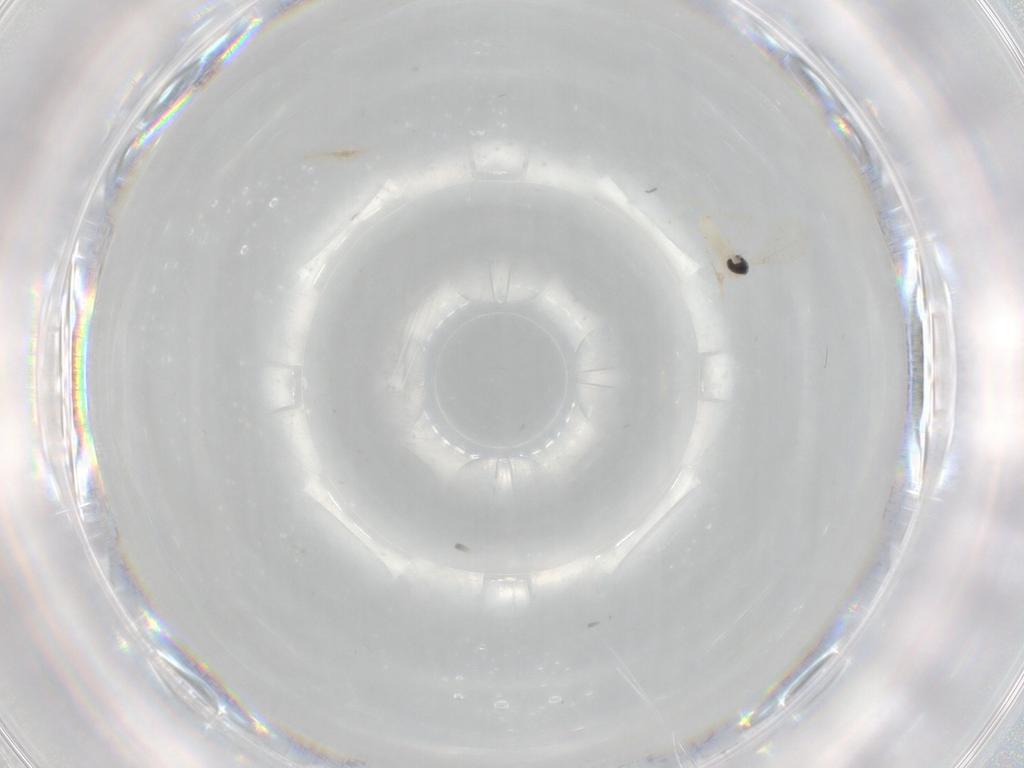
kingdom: Animalia
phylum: Arthropoda
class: Insecta
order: Diptera
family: Cecidomyiidae
